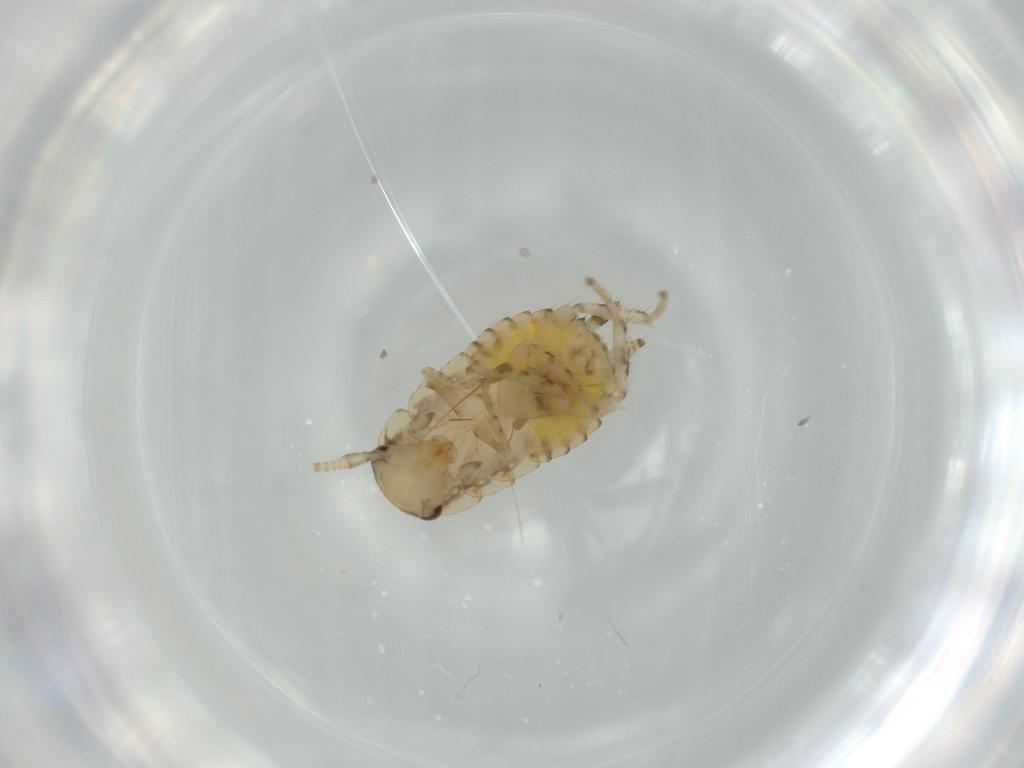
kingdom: Animalia
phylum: Arthropoda
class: Insecta
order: Blattodea
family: Ectobiidae
